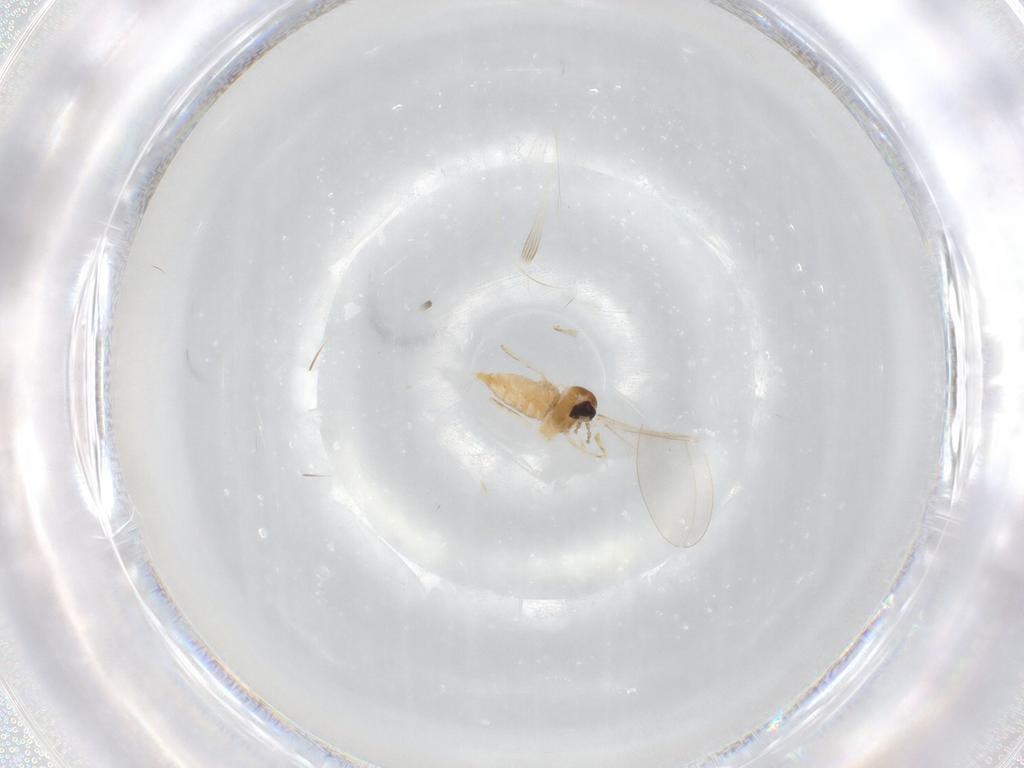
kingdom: Animalia
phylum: Arthropoda
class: Insecta
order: Diptera
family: Cecidomyiidae
